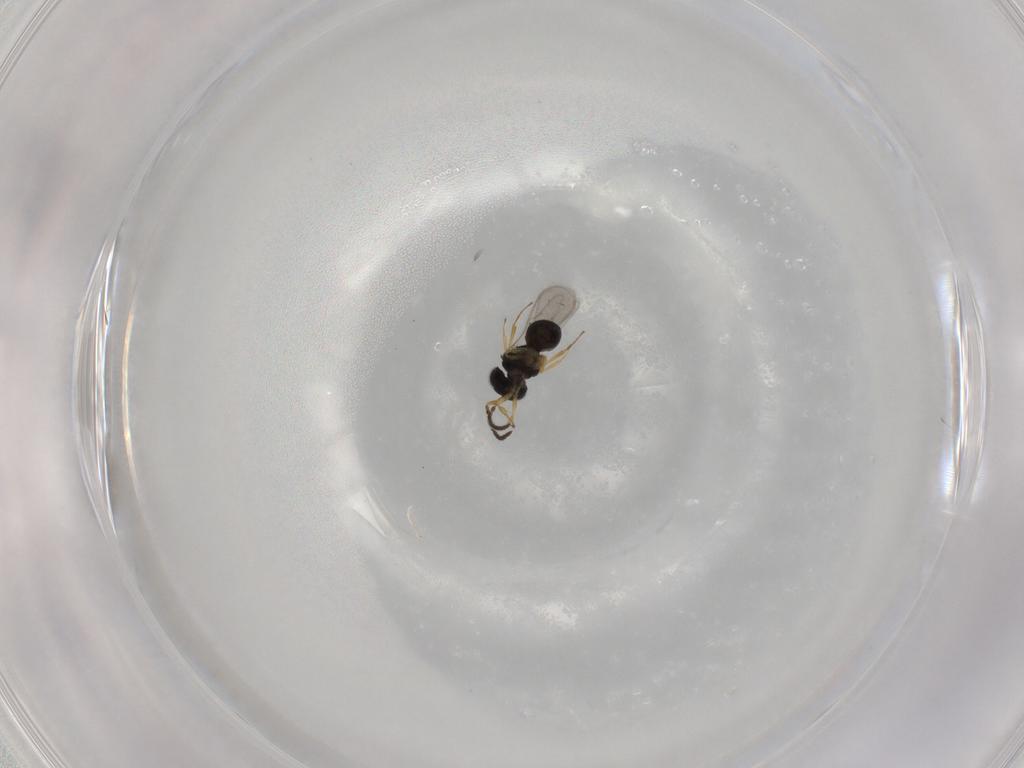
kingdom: Animalia
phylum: Arthropoda
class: Insecta
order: Hymenoptera
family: Scelionidae
